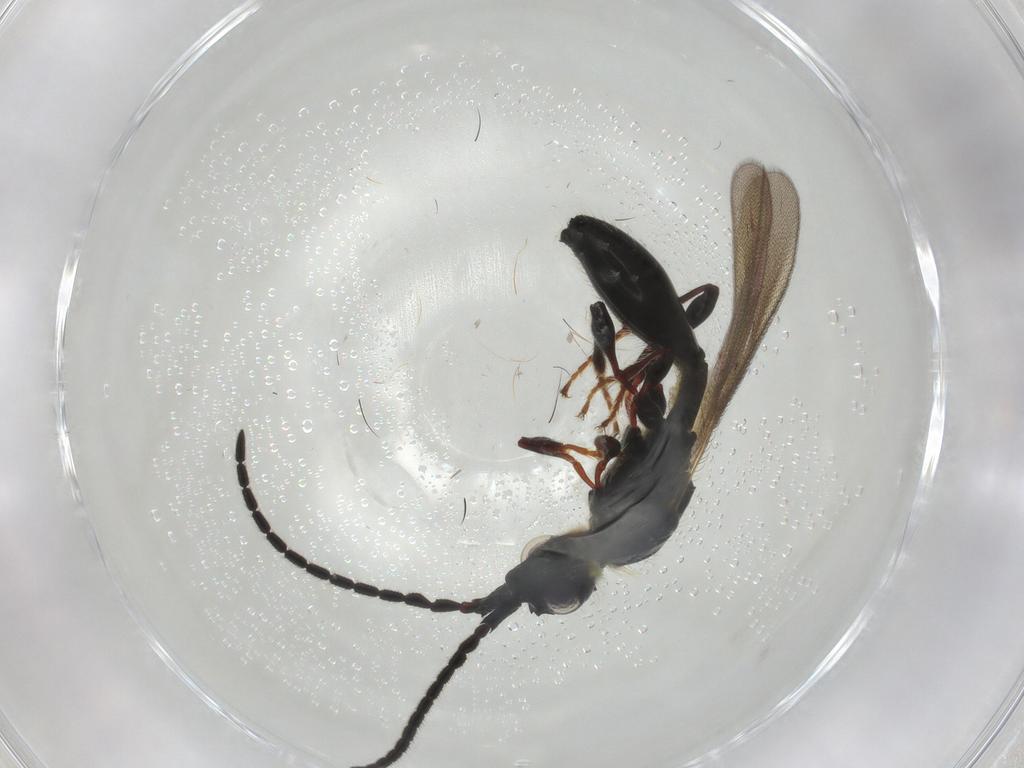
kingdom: Animalia
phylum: Arthropoda
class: Insecta
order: Hymenoptera
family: Diapriidae
